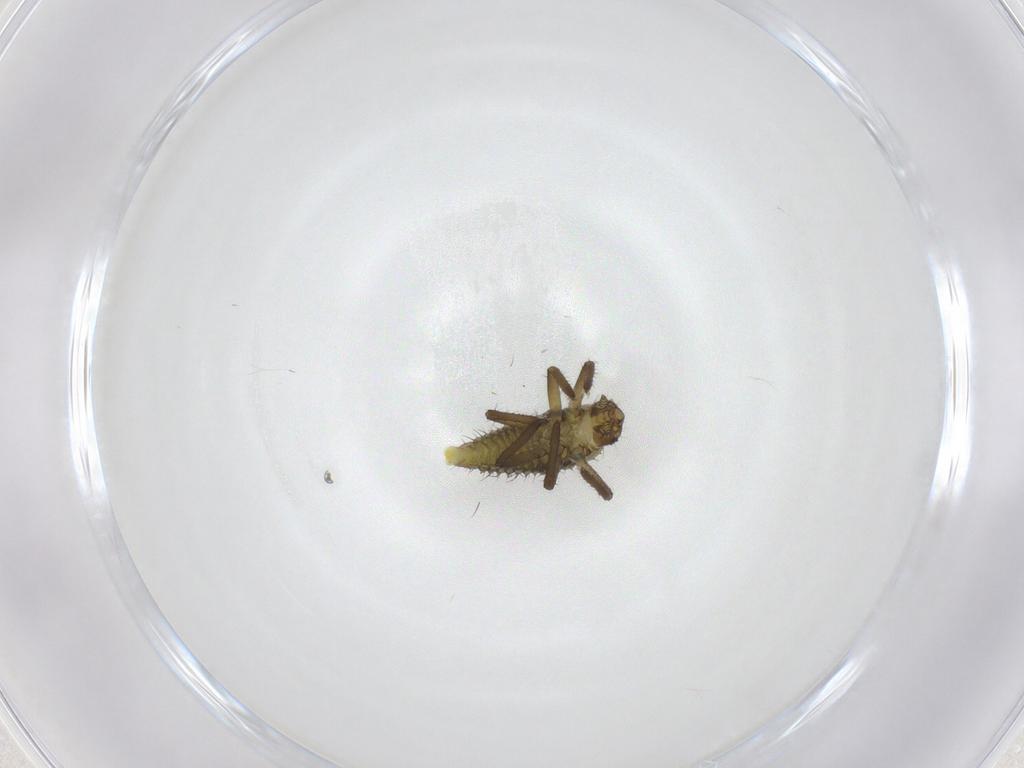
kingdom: Animalia
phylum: Arthropoda
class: Insecta
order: Coleoptera
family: Coccinellidae
